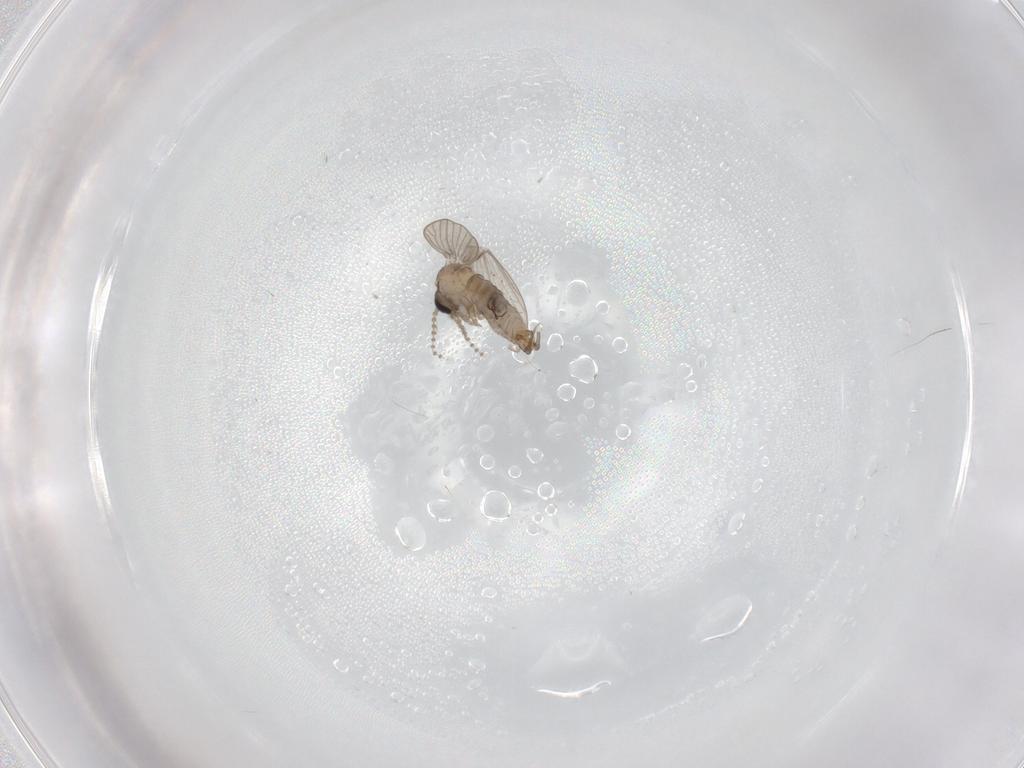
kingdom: Animalia
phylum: Arthropoda
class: Insecta
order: Diptera
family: Psychodidae
